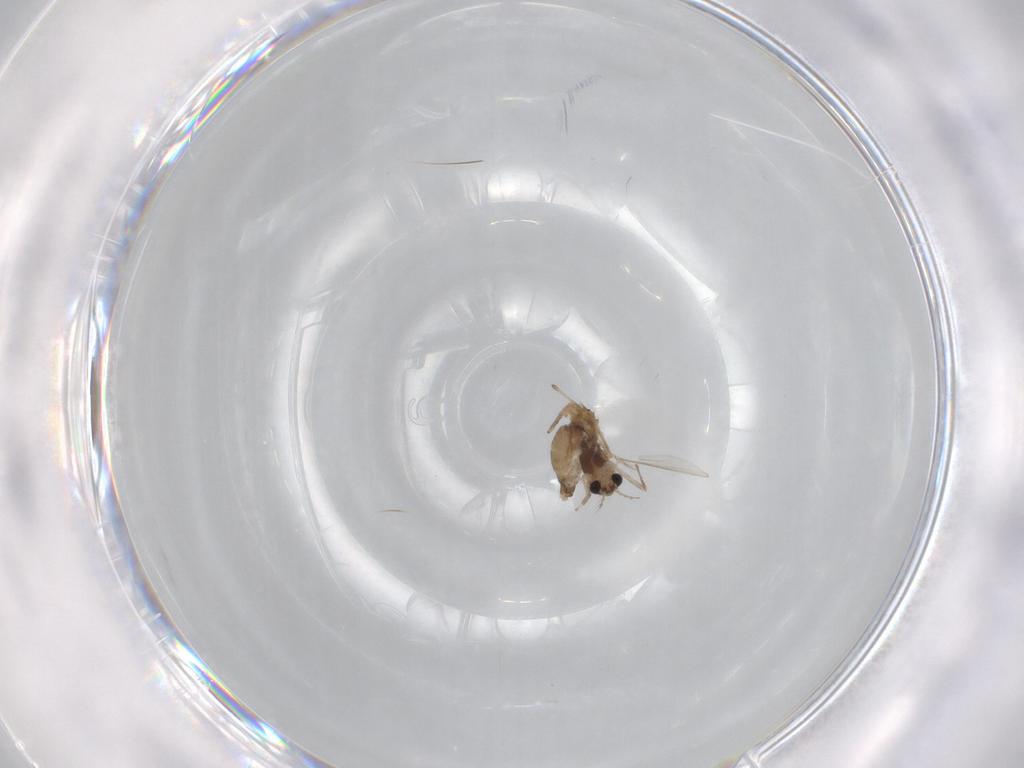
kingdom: Animalia
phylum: Arthropoda
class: Insecta
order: Diptera
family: Chironomidae
